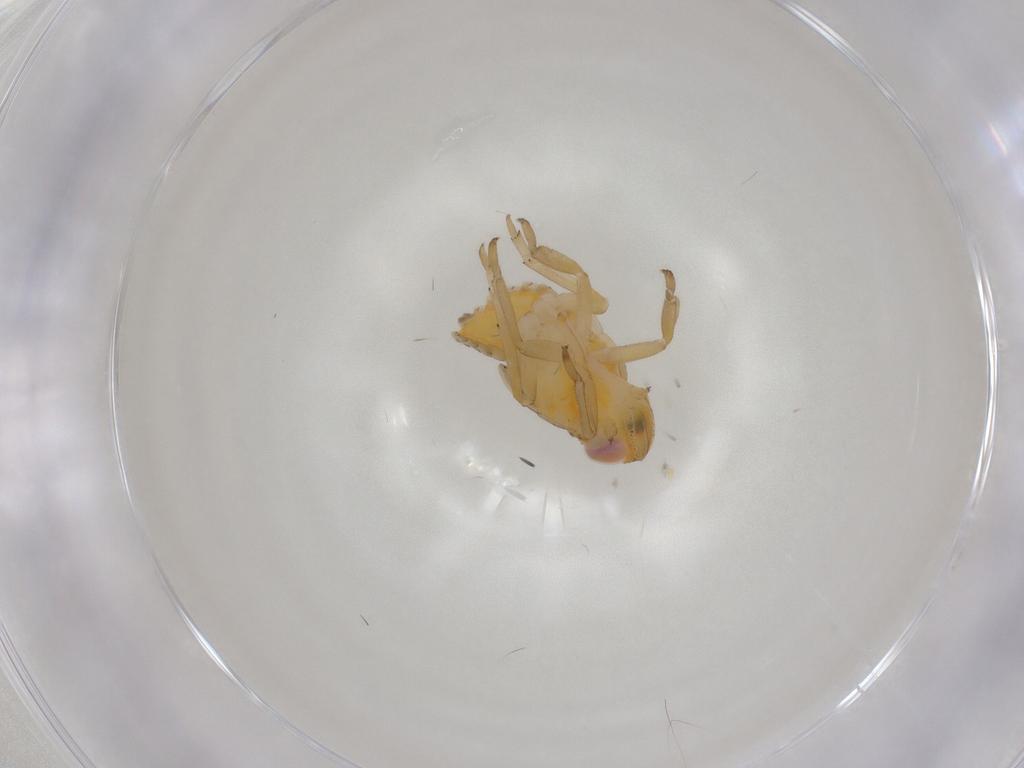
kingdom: Animalia
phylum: Arthropoda
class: Insecta
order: Hemiptera
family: Issidae
